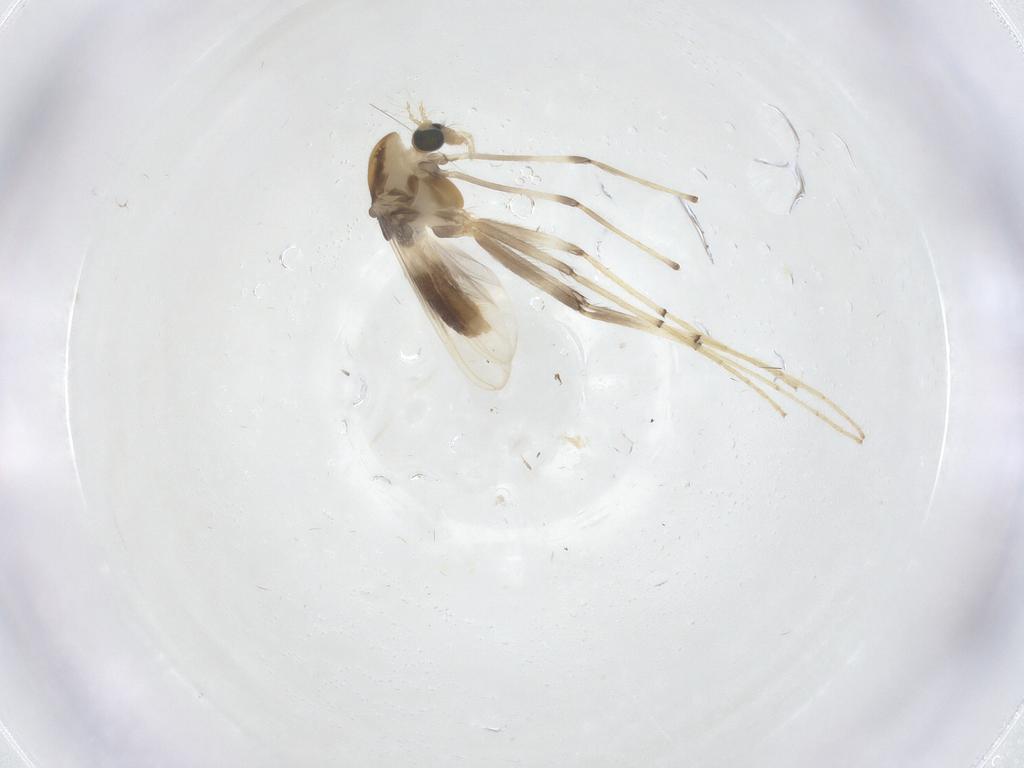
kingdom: Animalia
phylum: Arthropoda
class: Insecta
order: Diptera
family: Chironomidae
